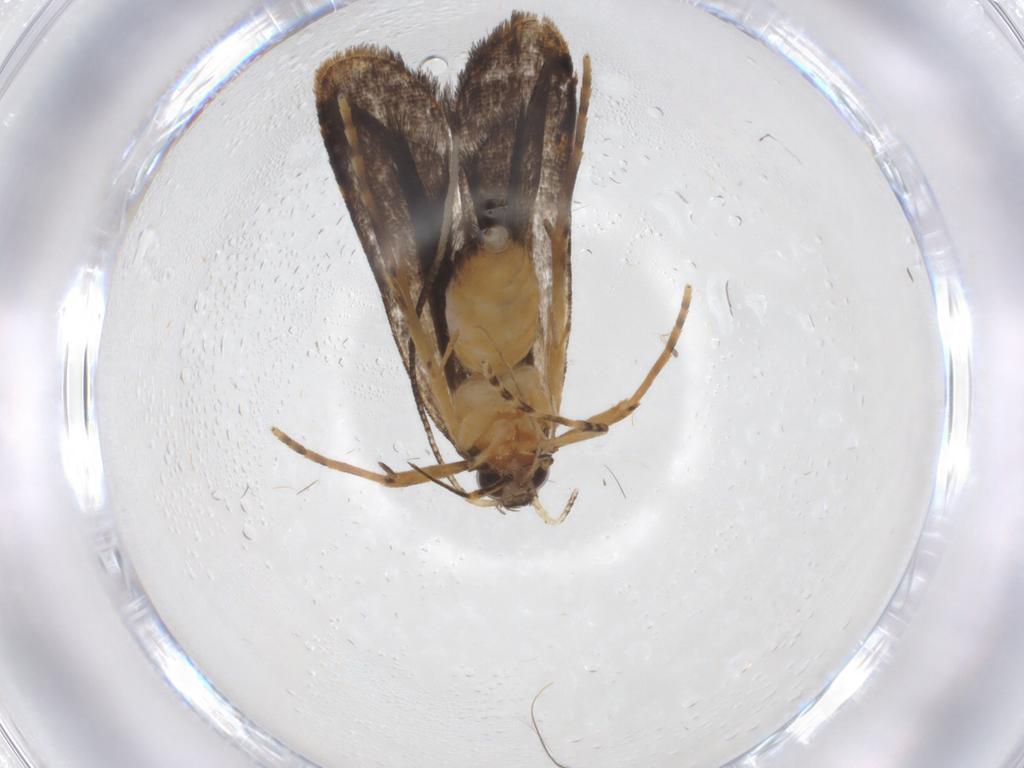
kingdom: Animalia
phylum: Arthropoda
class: Insecta
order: Lepidoptera
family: Cosmopterigidae
